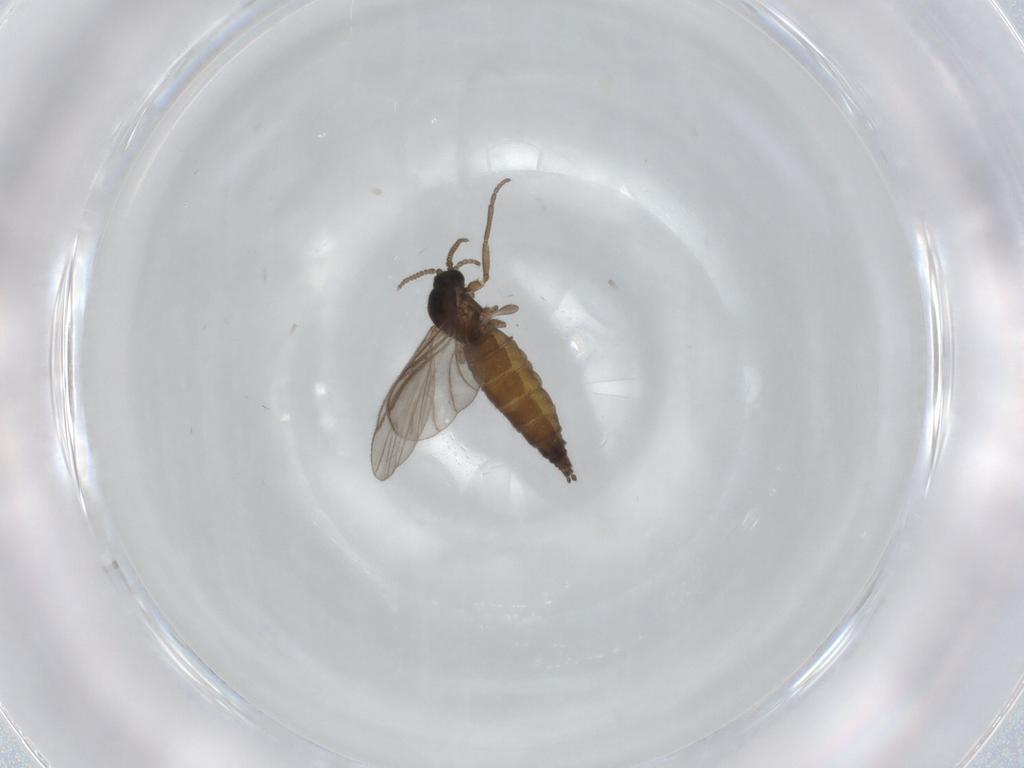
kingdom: Animalia
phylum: Arthropoda
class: Insecta
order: Diptera
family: Sciaridae
